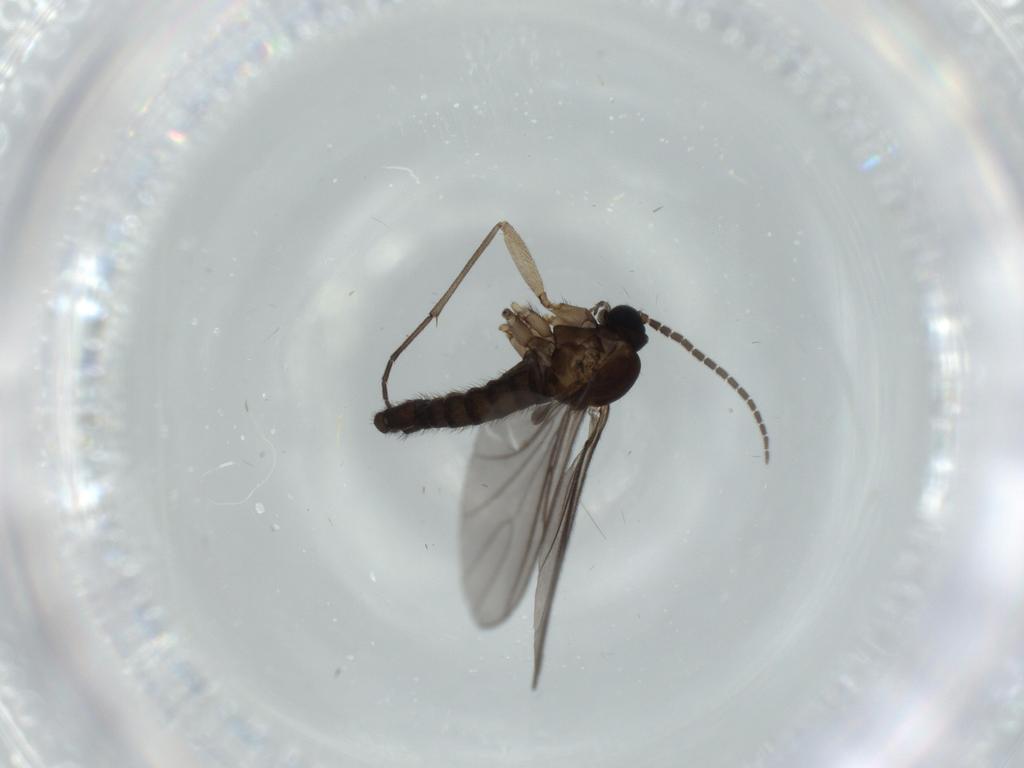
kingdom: Animalia
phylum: Arthropoda
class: Insecta
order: Diptera
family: Sciaridae
